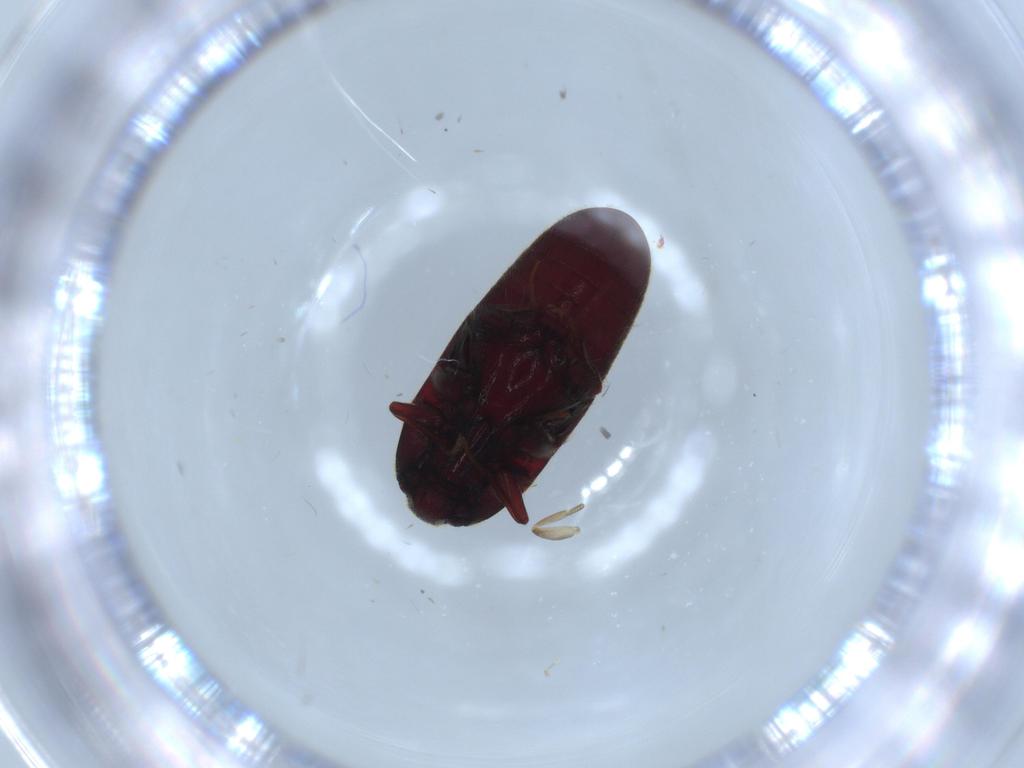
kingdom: Animalia
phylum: Arthropoda
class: Insecta
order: Coleoptera
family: Throscidae
